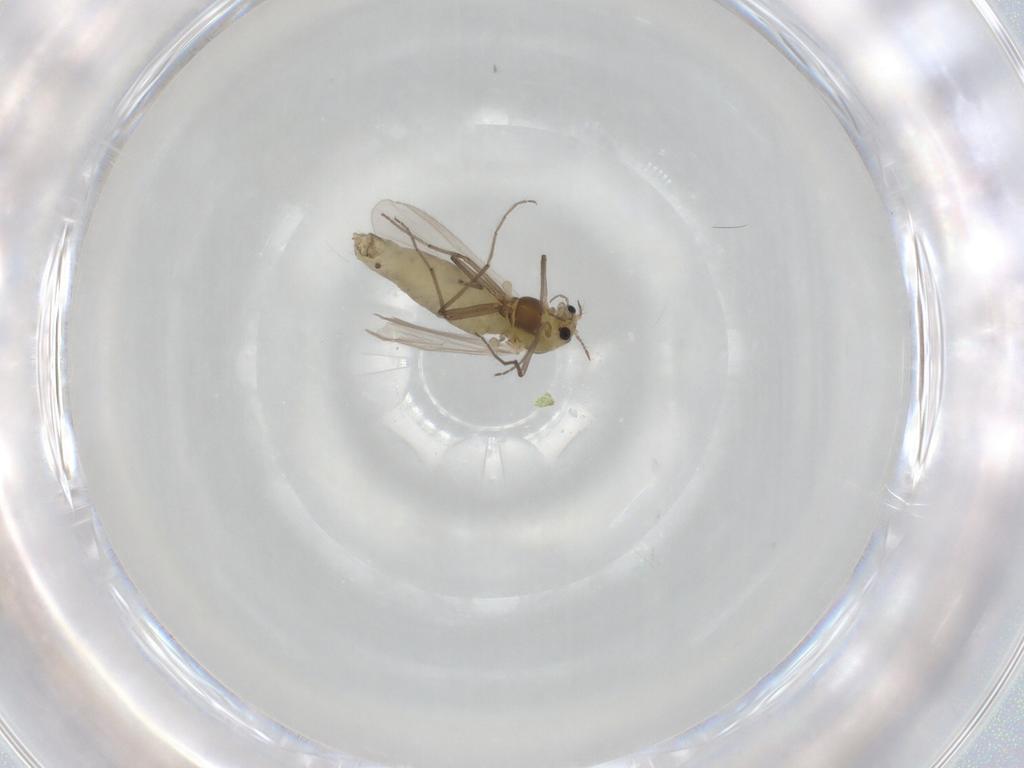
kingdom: Animalia
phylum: Arthropoda
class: Insecta
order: Diptera
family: Chironomidae
